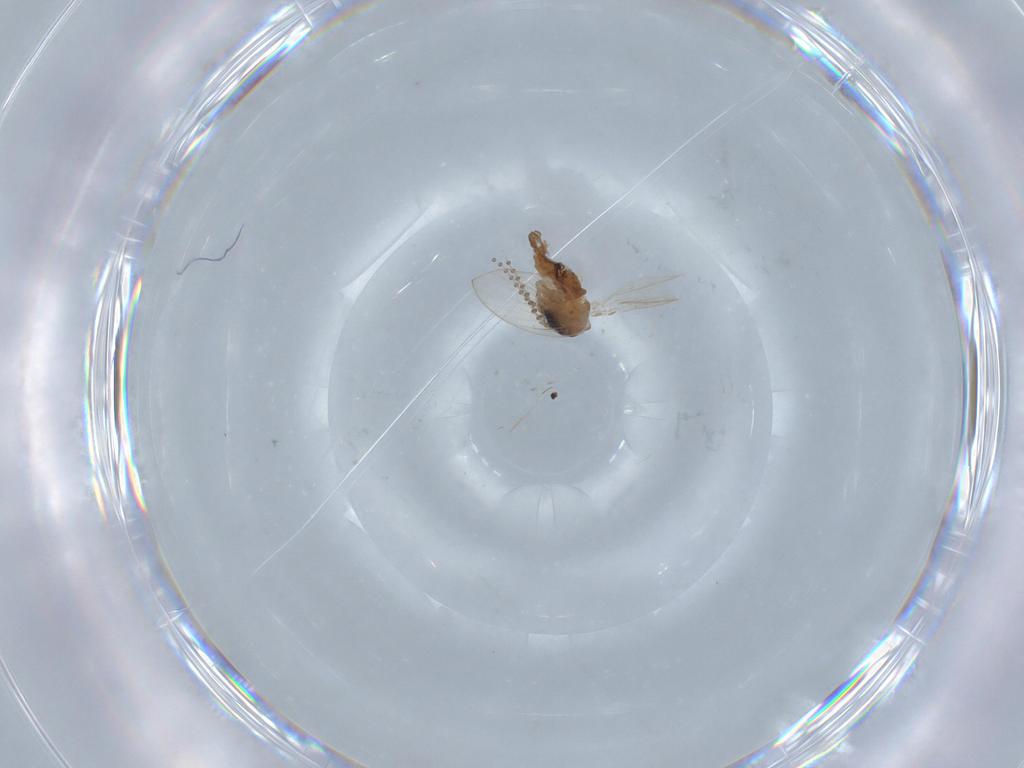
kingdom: Animalia
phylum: Arthropoda
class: Insecta
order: Diptera
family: Psychodidae
